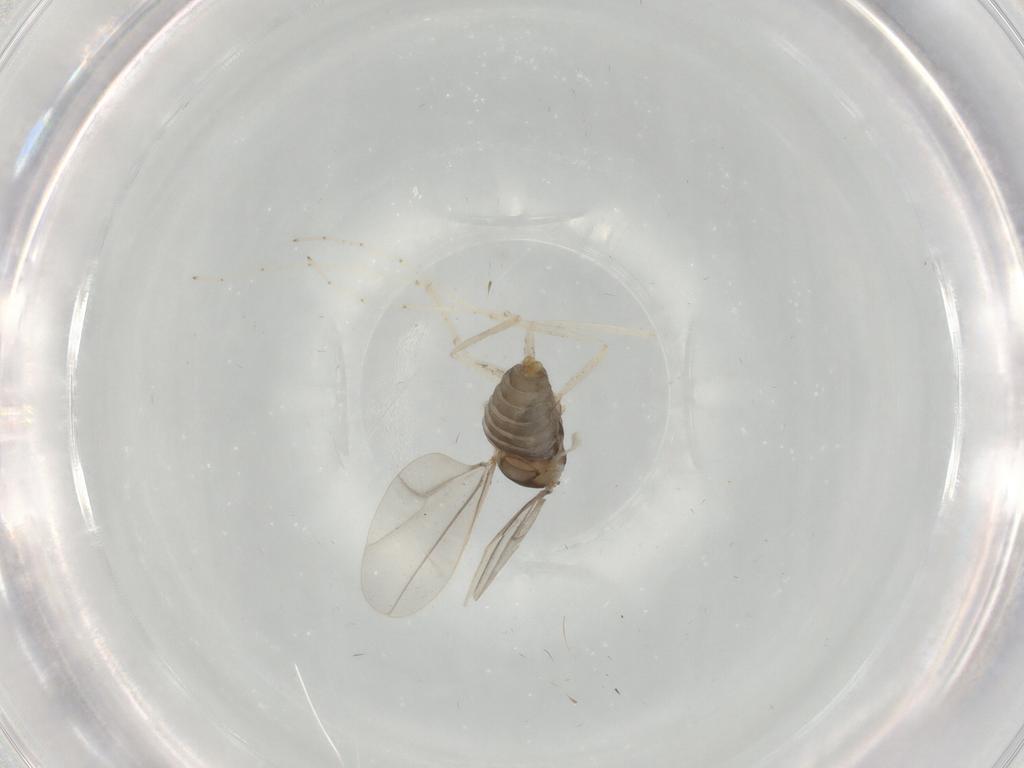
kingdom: Animalia
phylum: Arthropoda
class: Insecta
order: Diptera
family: Cecidomyiidae
